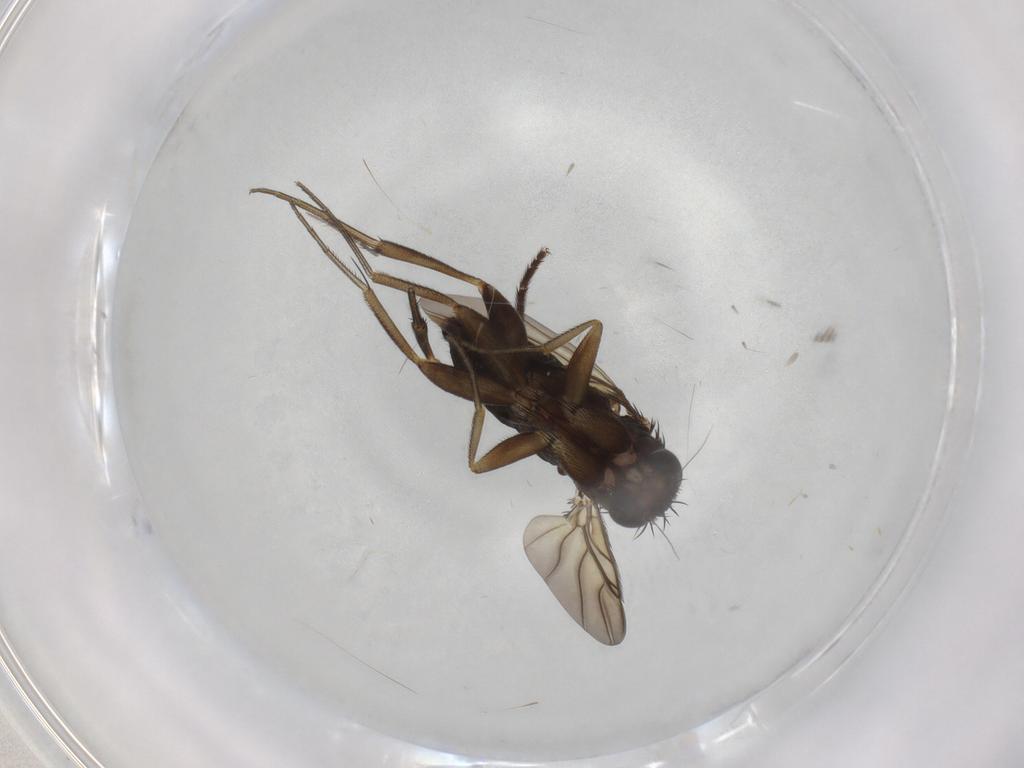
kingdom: Animalia
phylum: Arthropoda
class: Insecta
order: Diptera
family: Phoridae
